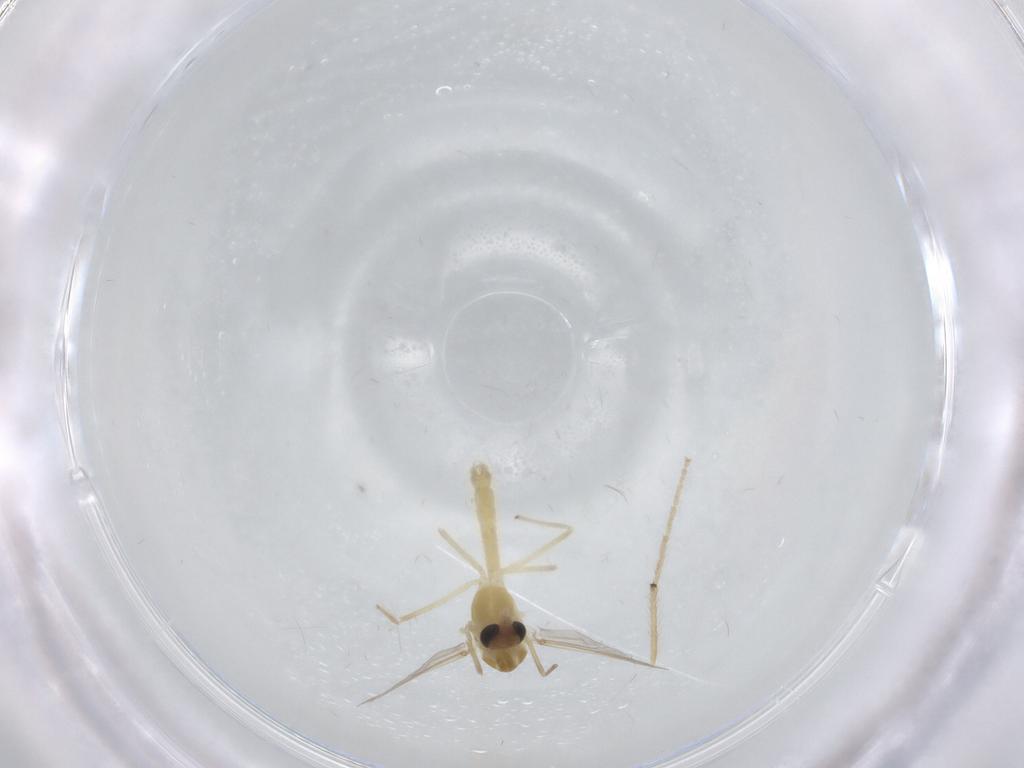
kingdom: Animalia
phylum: Arthropoda
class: Insecta
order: Diptera
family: Chironomidae
